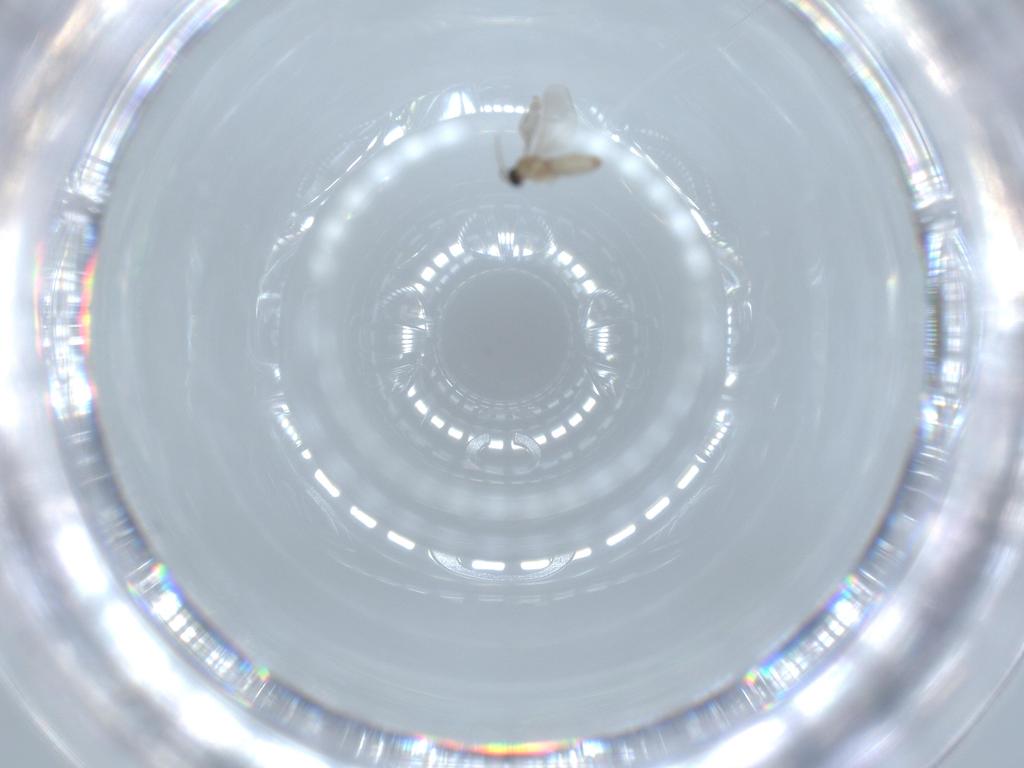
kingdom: Animalia
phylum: Arthropoda
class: Insecta
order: Diptera
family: Sciaridae
